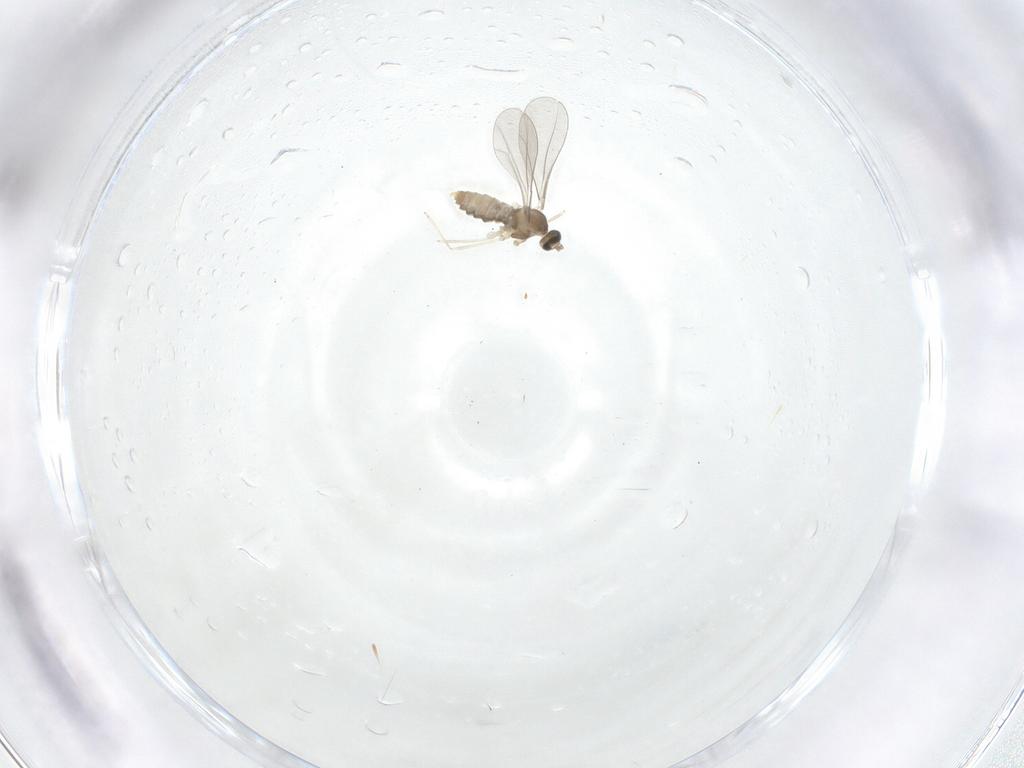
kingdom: Animalia
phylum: Arthropoda
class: Insecta
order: Diptera
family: Cecidomyiidae
